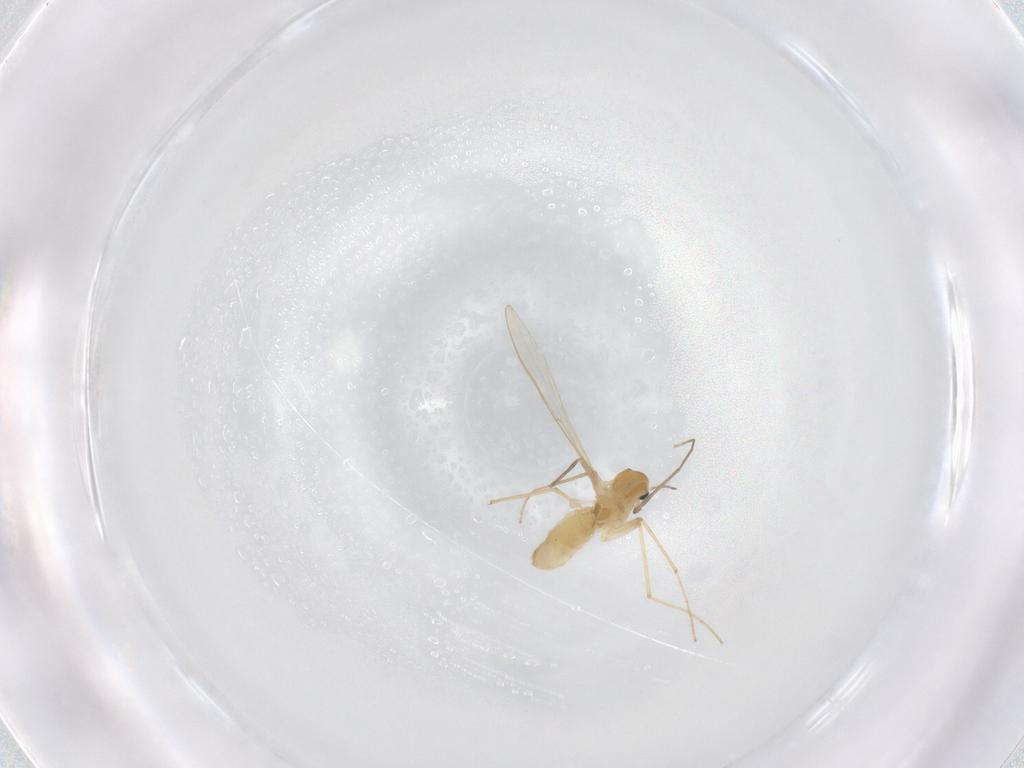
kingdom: Animalia
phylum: Arthropoda
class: Insecta
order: Diptera
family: Chironomidae
